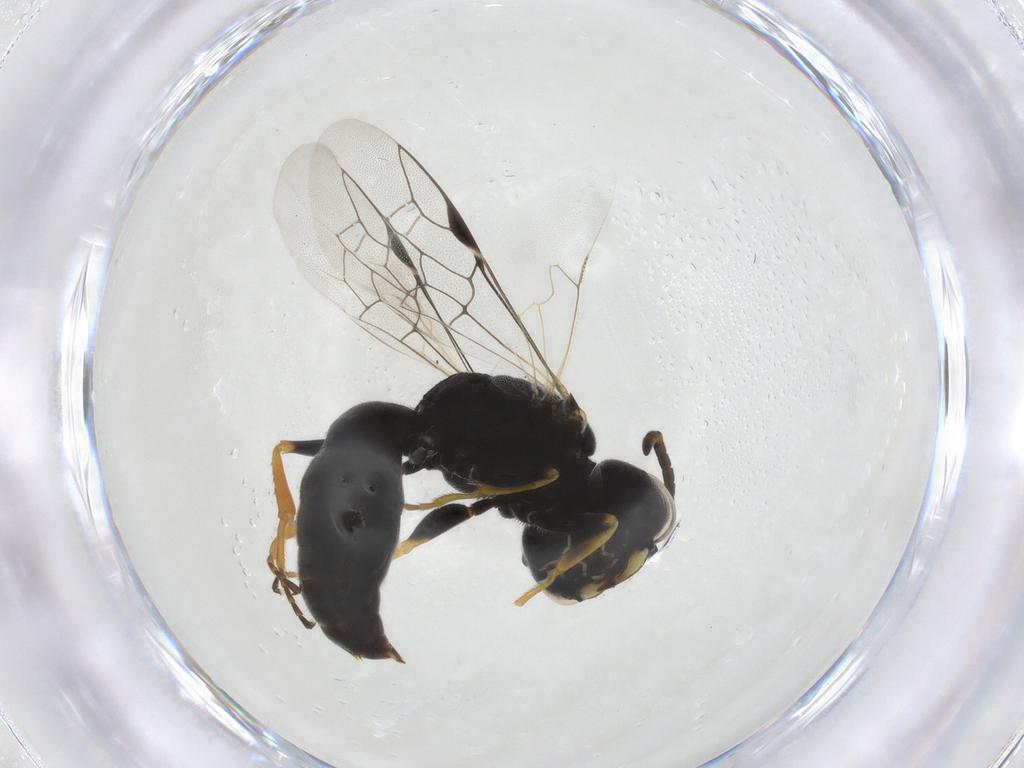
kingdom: Animalia
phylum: Arthropoda
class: Insecta
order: Hymenoptera
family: Pemphredonidae
